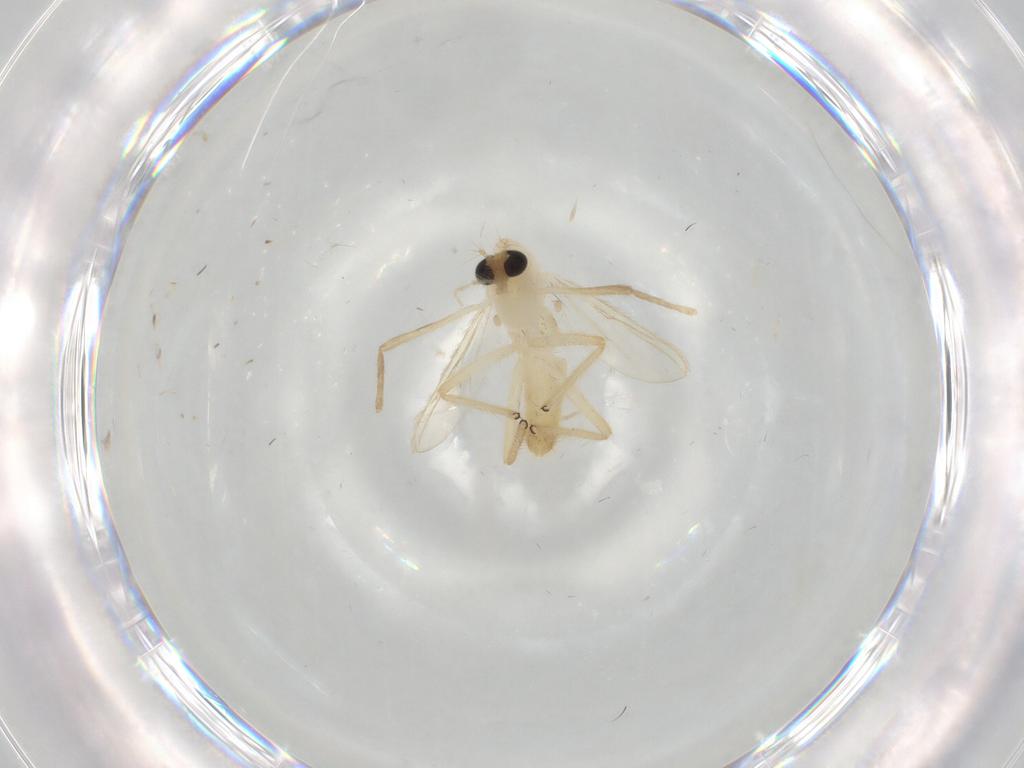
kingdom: Animalia
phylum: Arthropoda
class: Insecta
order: Diptera
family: Chironomidae
